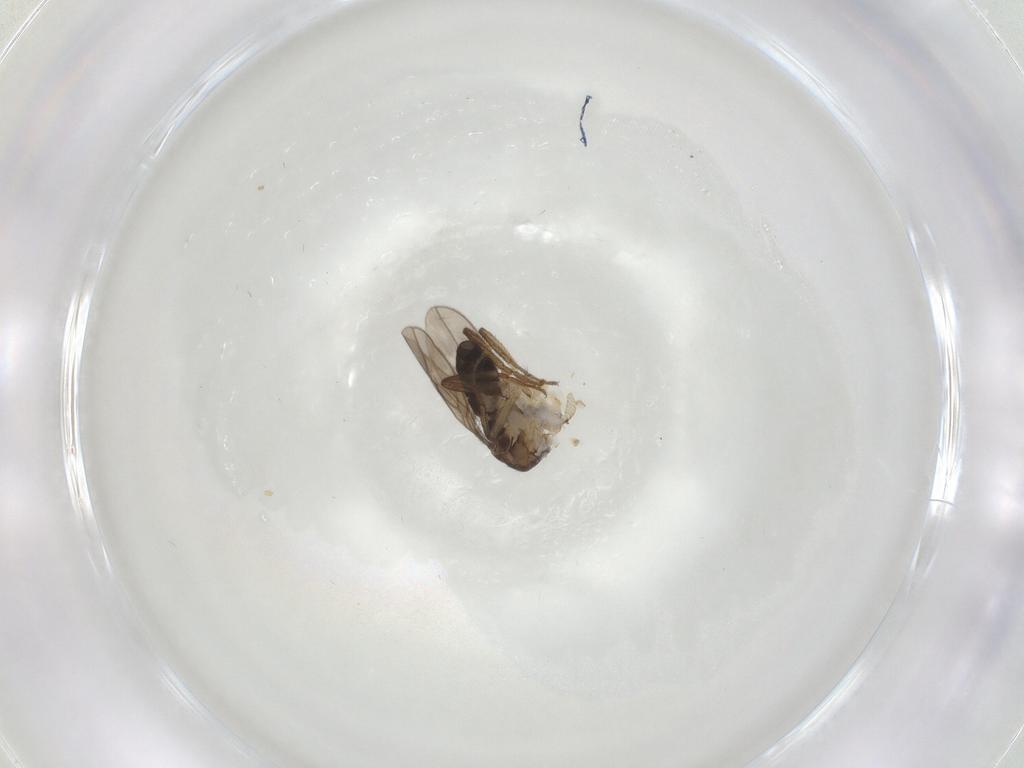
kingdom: Animalia
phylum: Arthropoda
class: Insecta
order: Diptera
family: Sphaeroceridae
